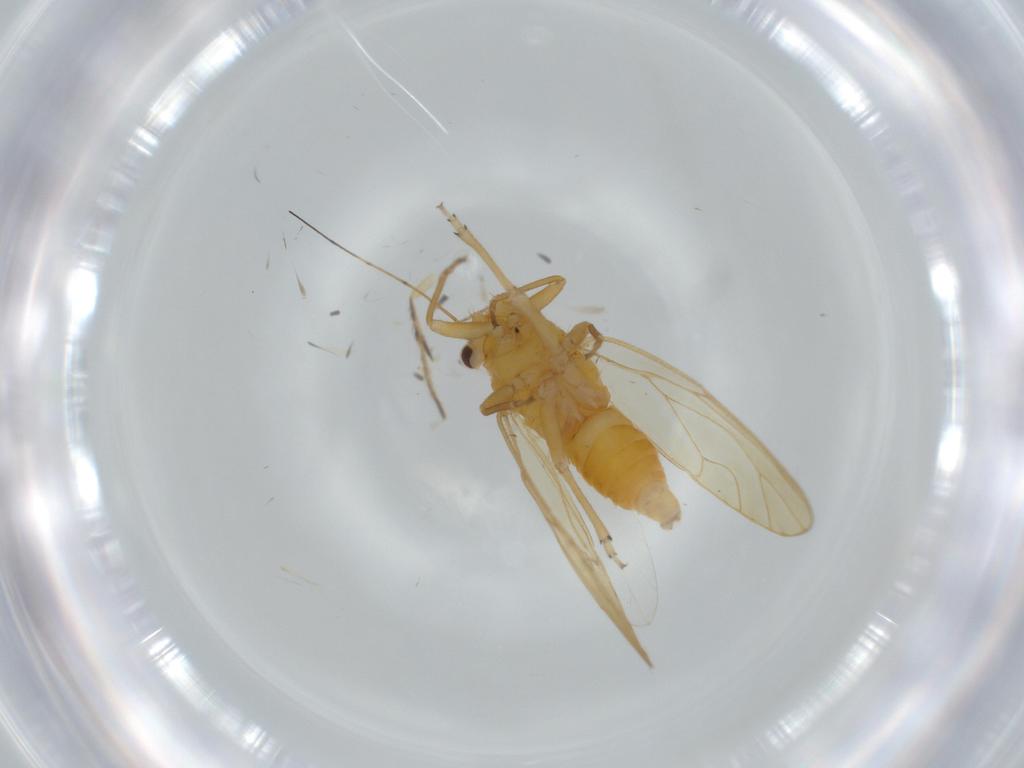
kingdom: Animalia
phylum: Arthropoda
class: Insecta
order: Hemiptera
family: Psyllidae
